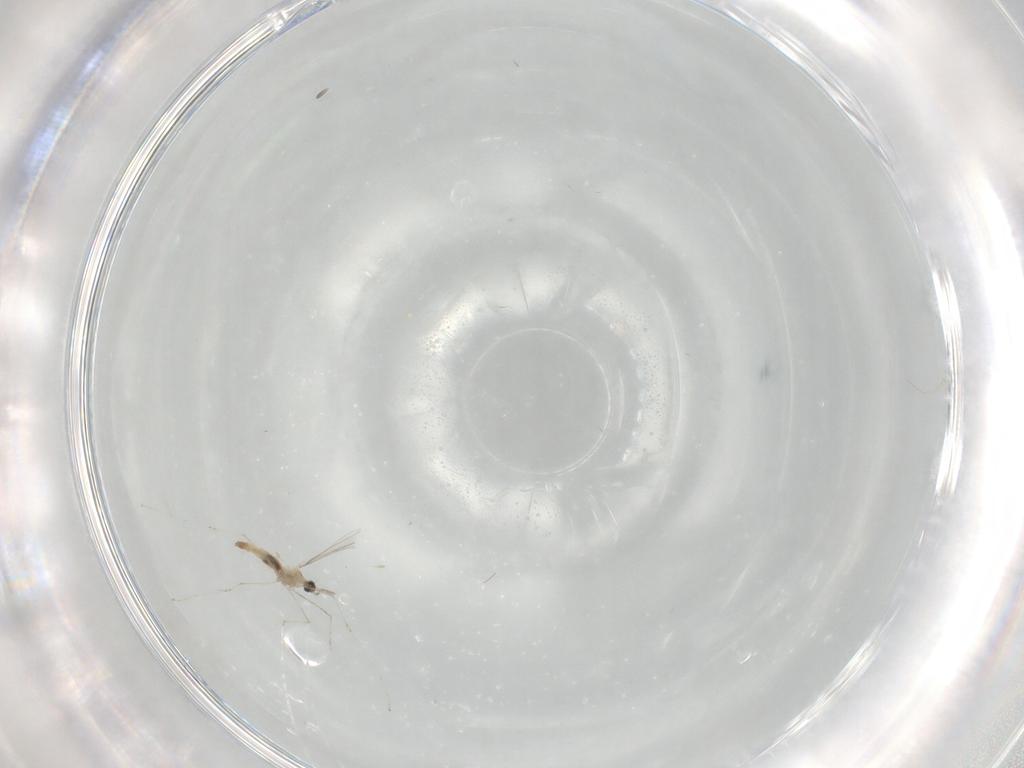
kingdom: Animalia
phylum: Arthropoda
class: Insecta
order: Diptera
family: Cecidomyiidae
